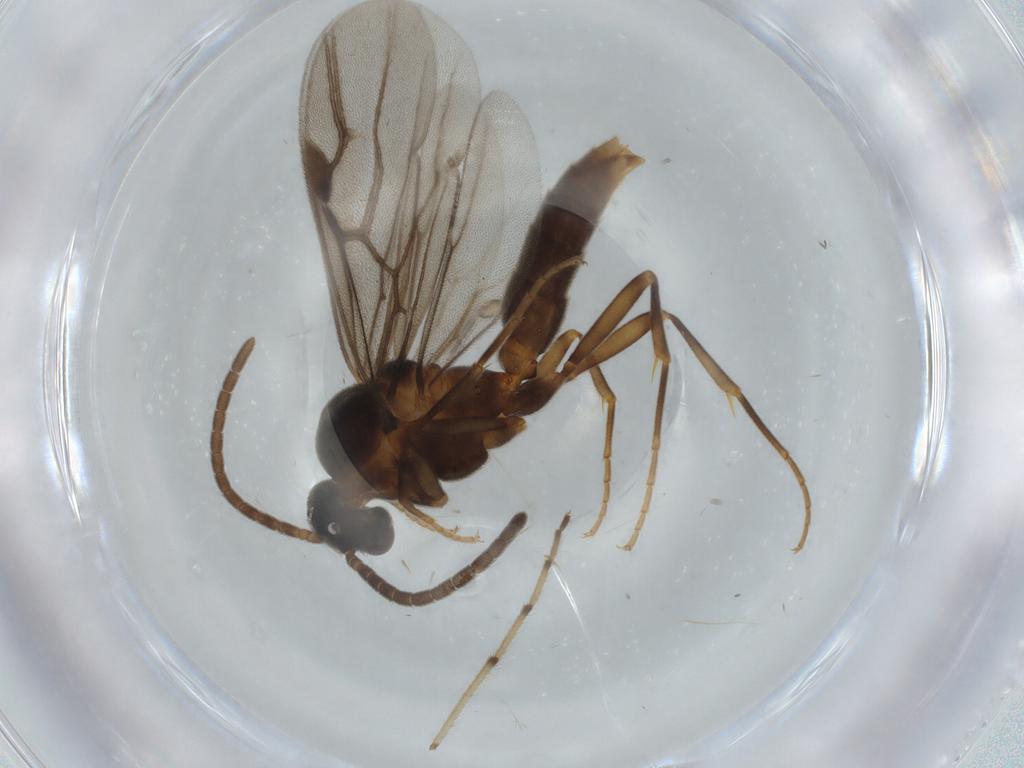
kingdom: Animalia
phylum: Arthropoda
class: Insecta
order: Hymenoptera
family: Formicidae
